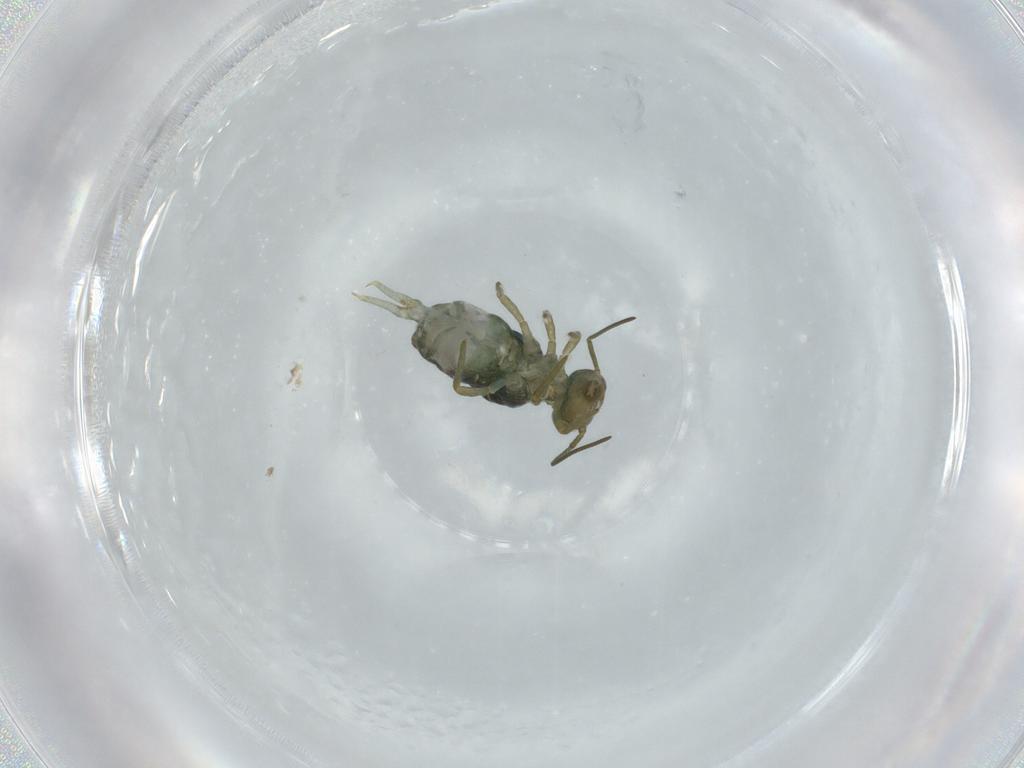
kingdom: Animalia
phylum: Arthropoda
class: Collembola
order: Symphypleona
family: Sminthuridae
